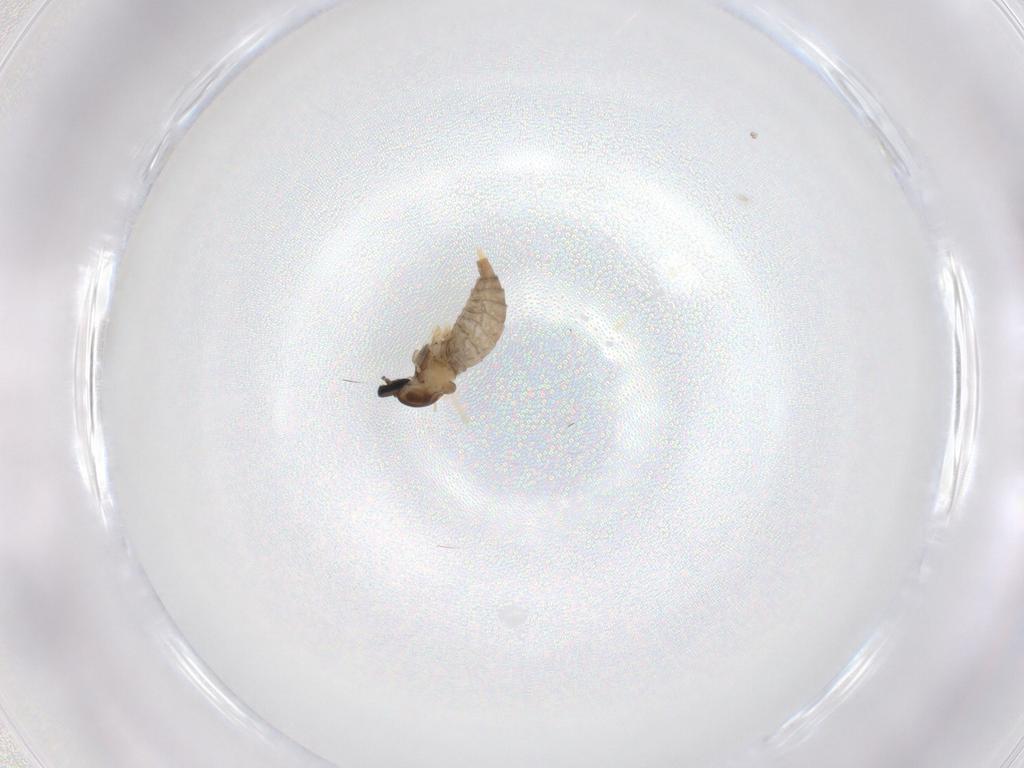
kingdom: Animalia
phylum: Arthropoda
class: Insecta
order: Diptera
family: Cecidomyiidae
